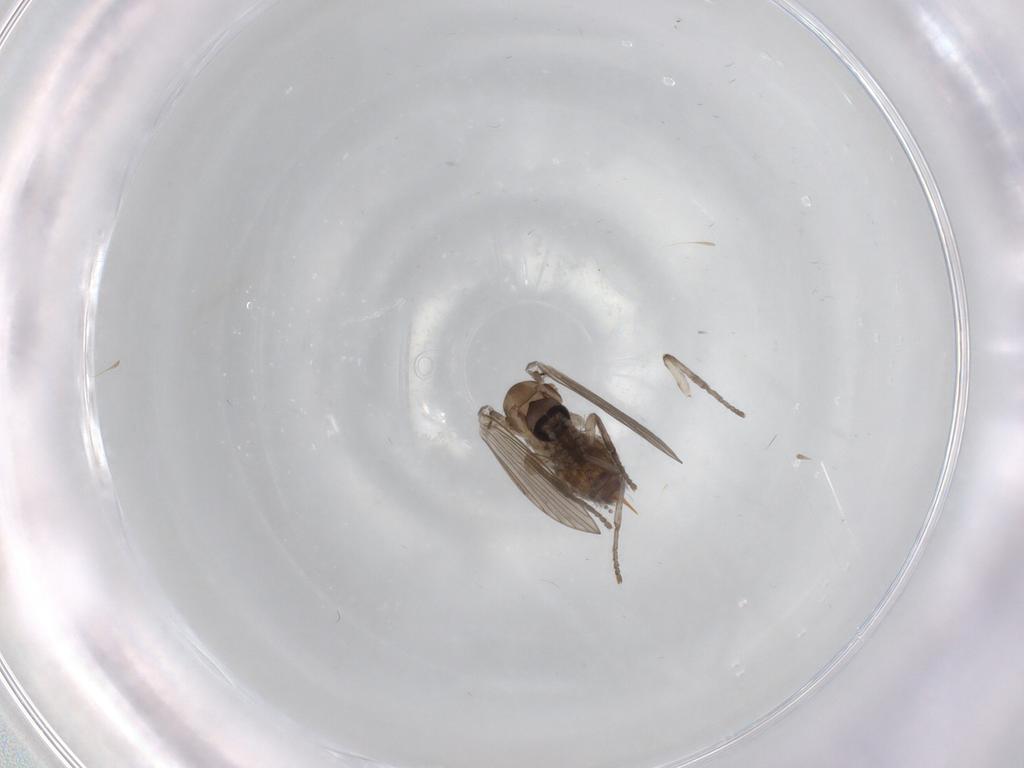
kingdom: Animalia
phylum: Arthropoda
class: Insecta
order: Diptera
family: Psychodidae
